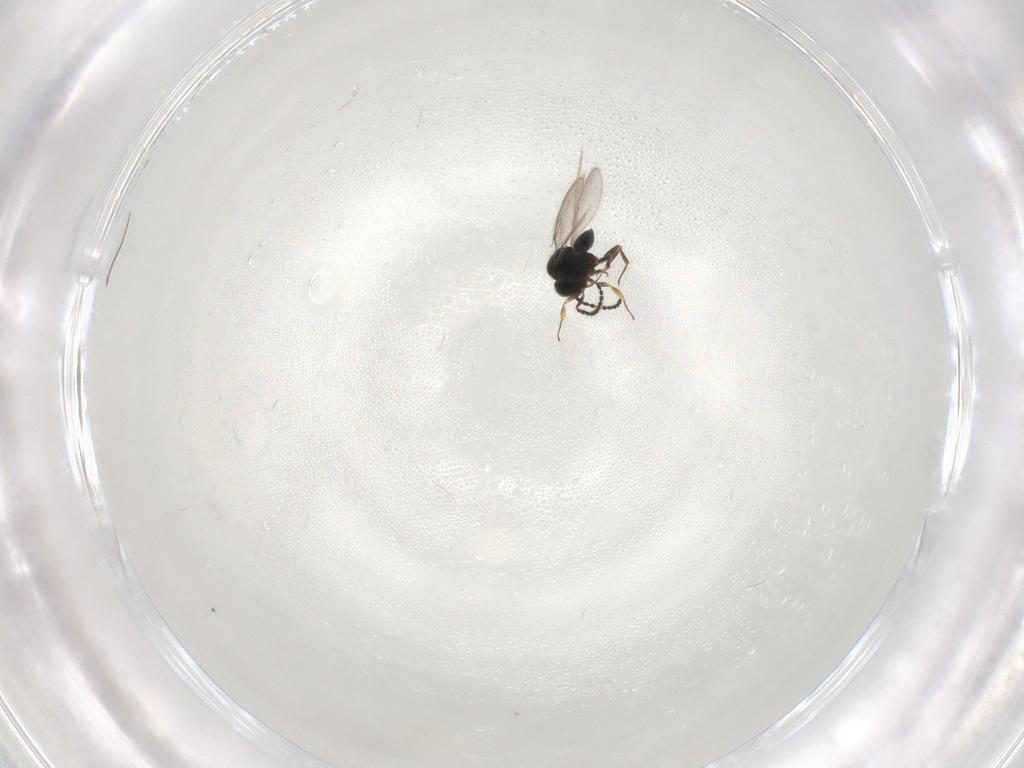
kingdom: Animalia
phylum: Arthropoda
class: Insecta
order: Hymenoptera
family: Scelionidae
